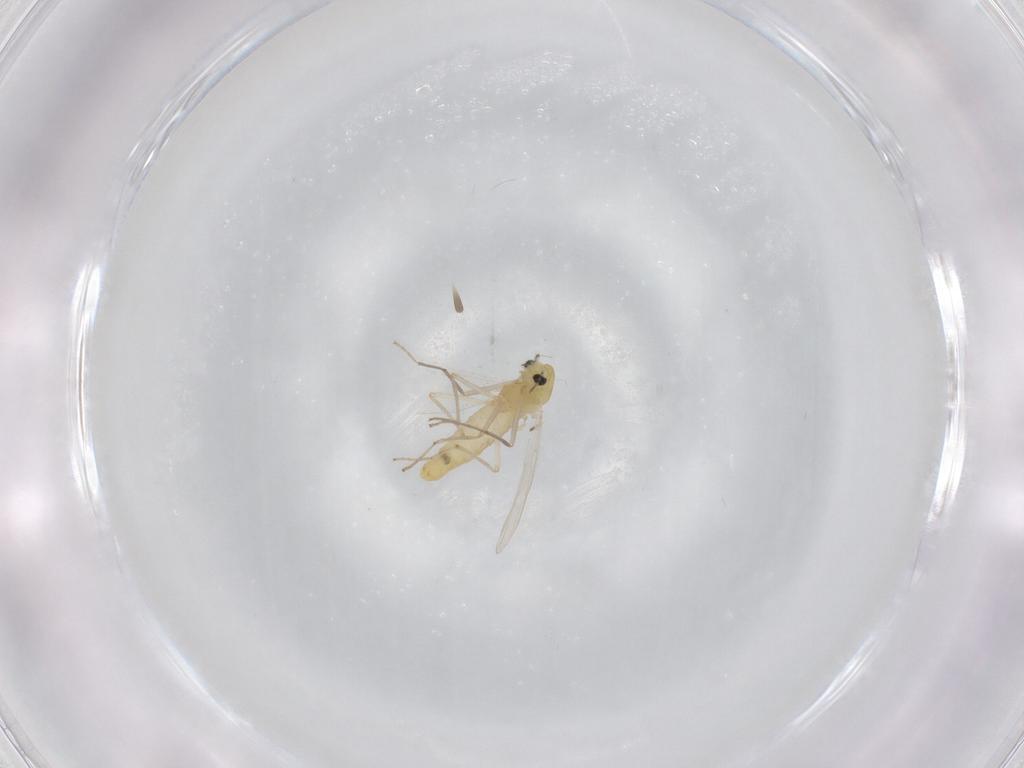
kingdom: Animalia
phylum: Arthropoda
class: Insecta
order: Diptera
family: Chironomidae
